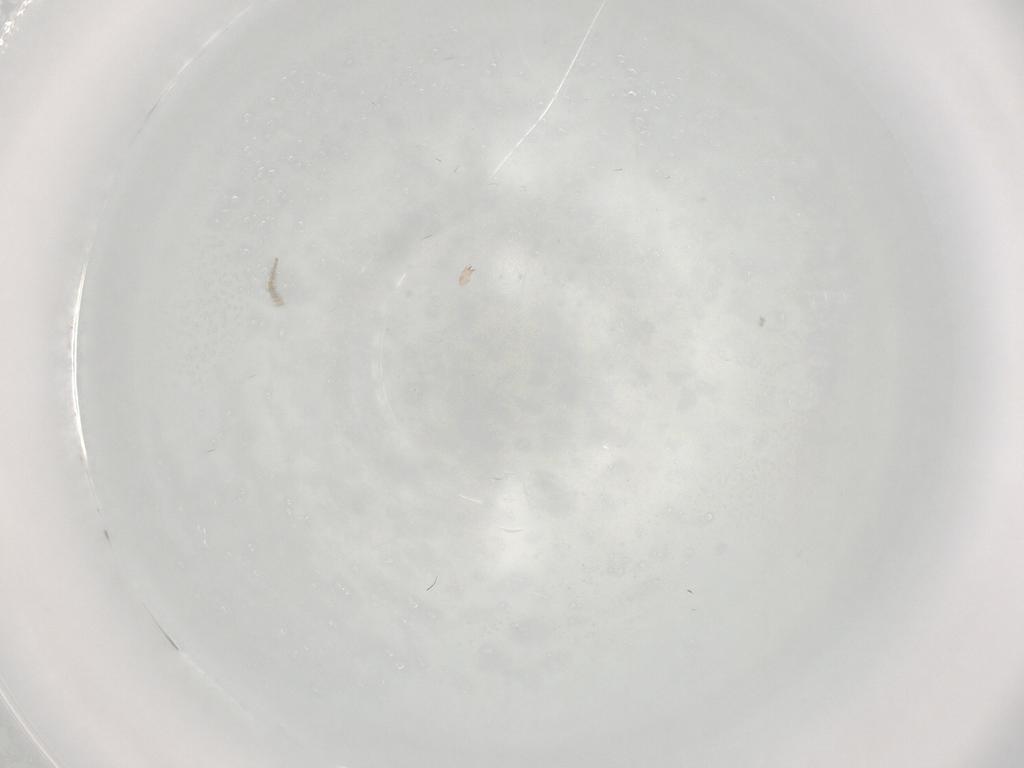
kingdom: Animalia
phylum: Arthropoda
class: Insecta
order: Diptera
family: Cecidomyiidae
